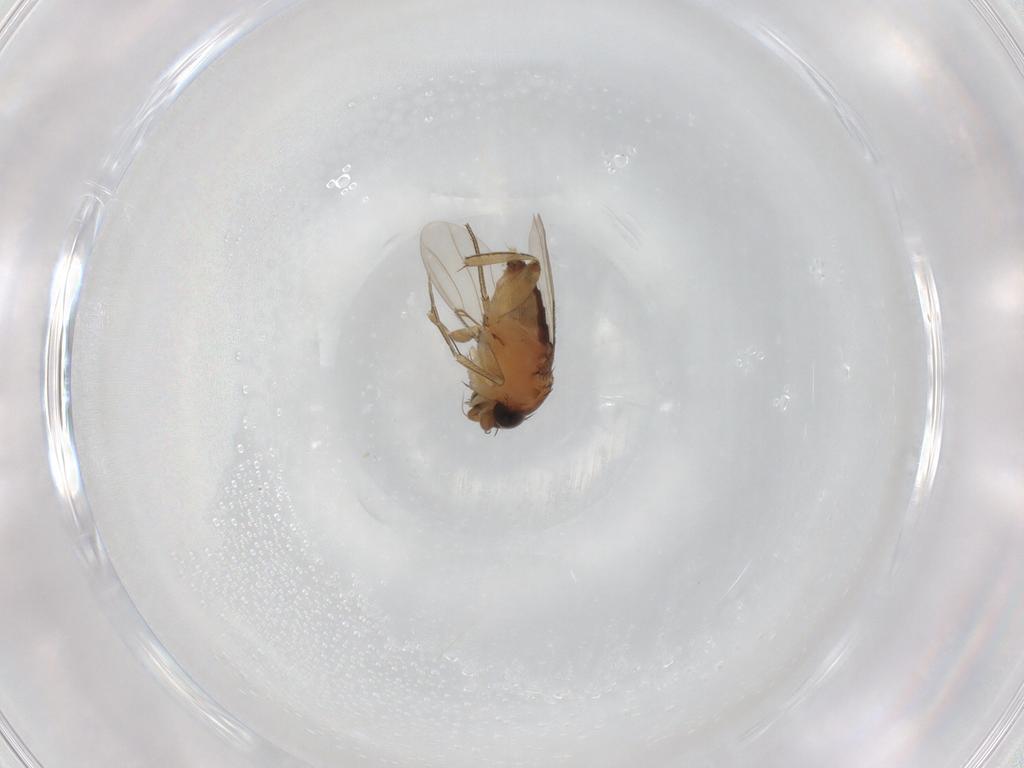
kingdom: Animalia
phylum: Arthropoda
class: Insecta
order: Diptera
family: Phoridae
